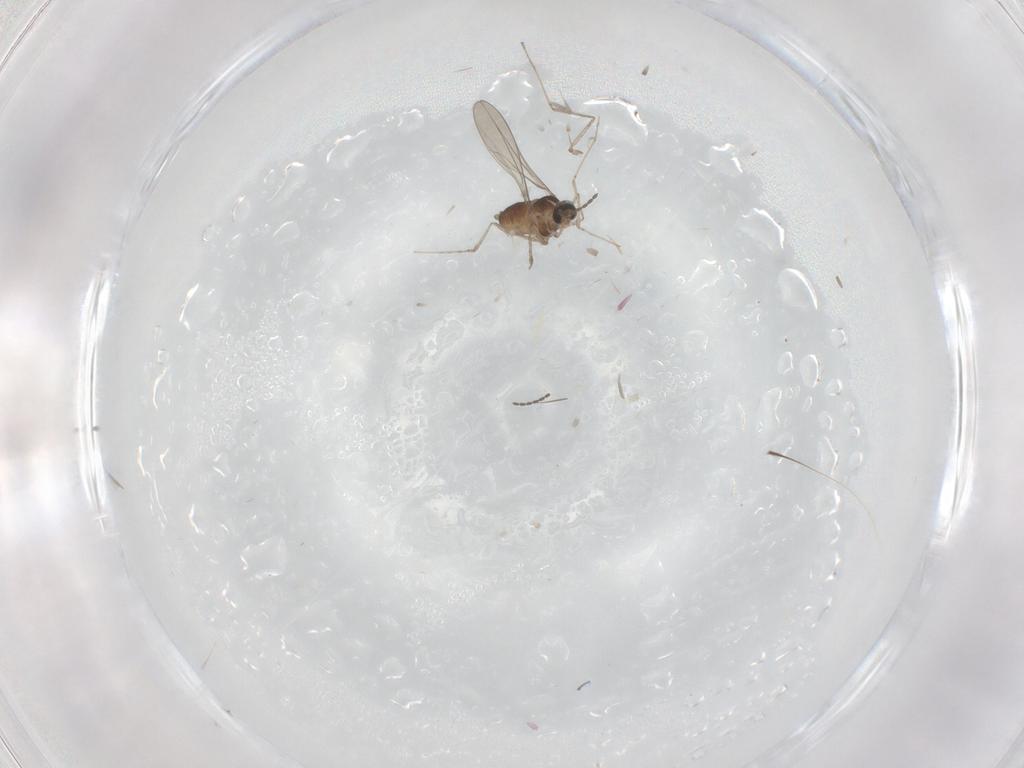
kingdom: Animalia
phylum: Arthropoda
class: Insecta
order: Diptera
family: Cecidomyiidae
